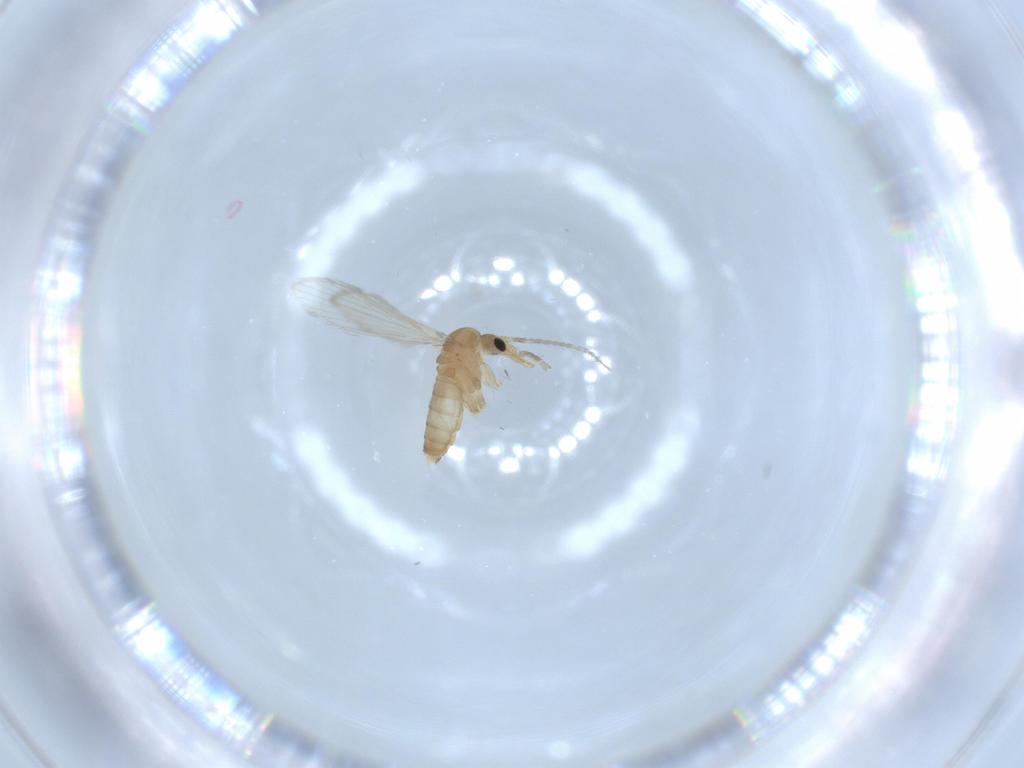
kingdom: Animalia
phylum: Arthropoda
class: Insecta
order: Diptera
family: Psychodidae
